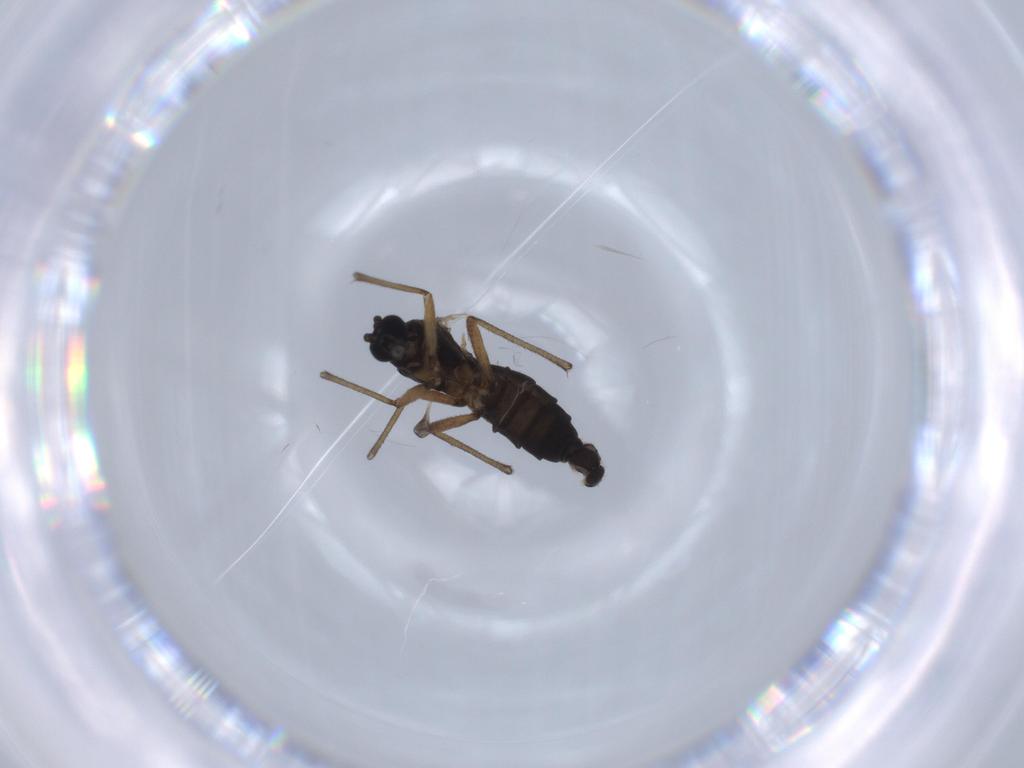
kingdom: Animalia
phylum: Arthropoda
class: Insecta
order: Diptera
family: Sciaridae
